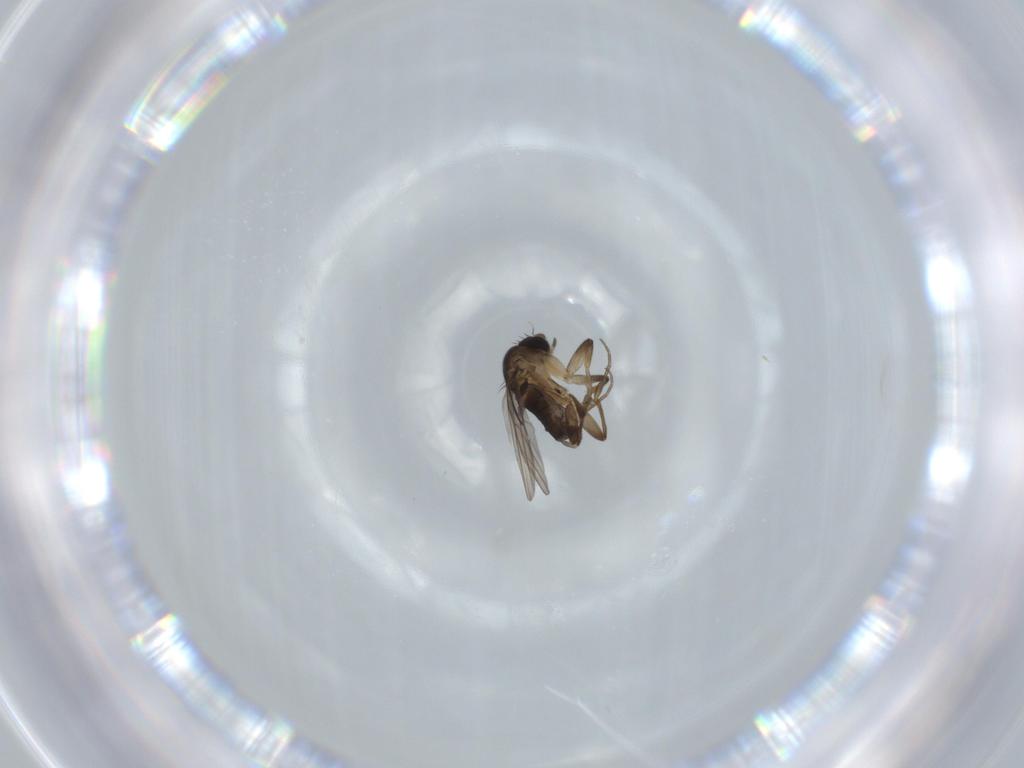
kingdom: Animalia
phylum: Arthropoda
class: Insecta
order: Diptera
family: Phoridae
